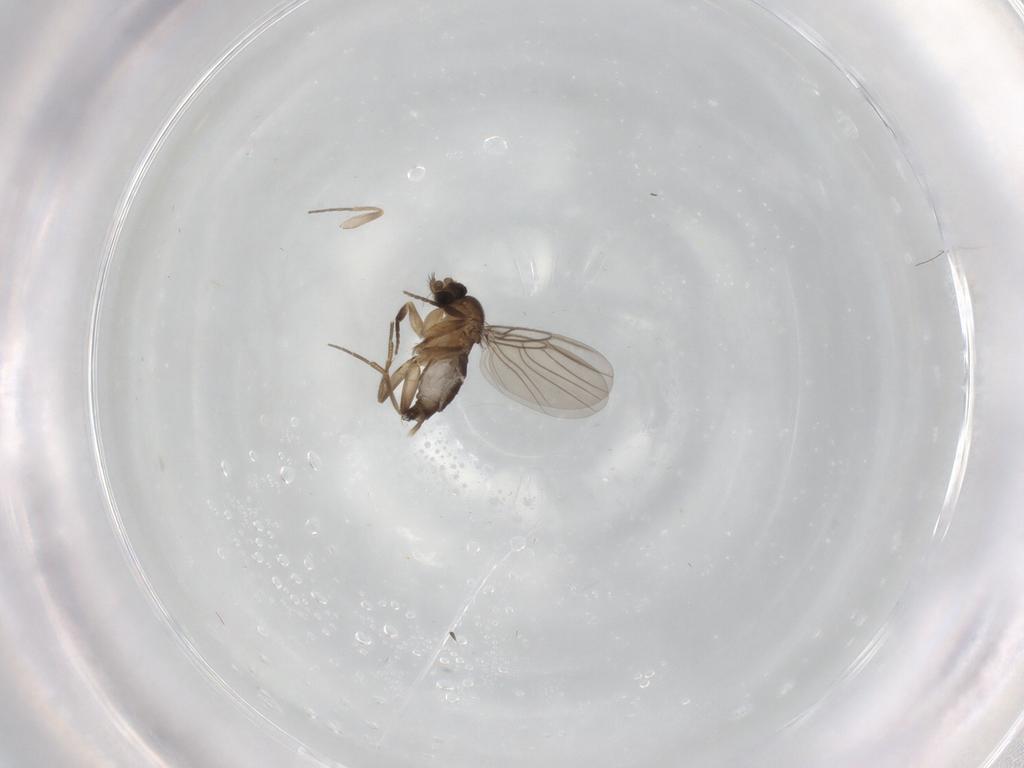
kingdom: Animalia
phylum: Arthropoda
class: Insecta
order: Diptera
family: Phoridae
